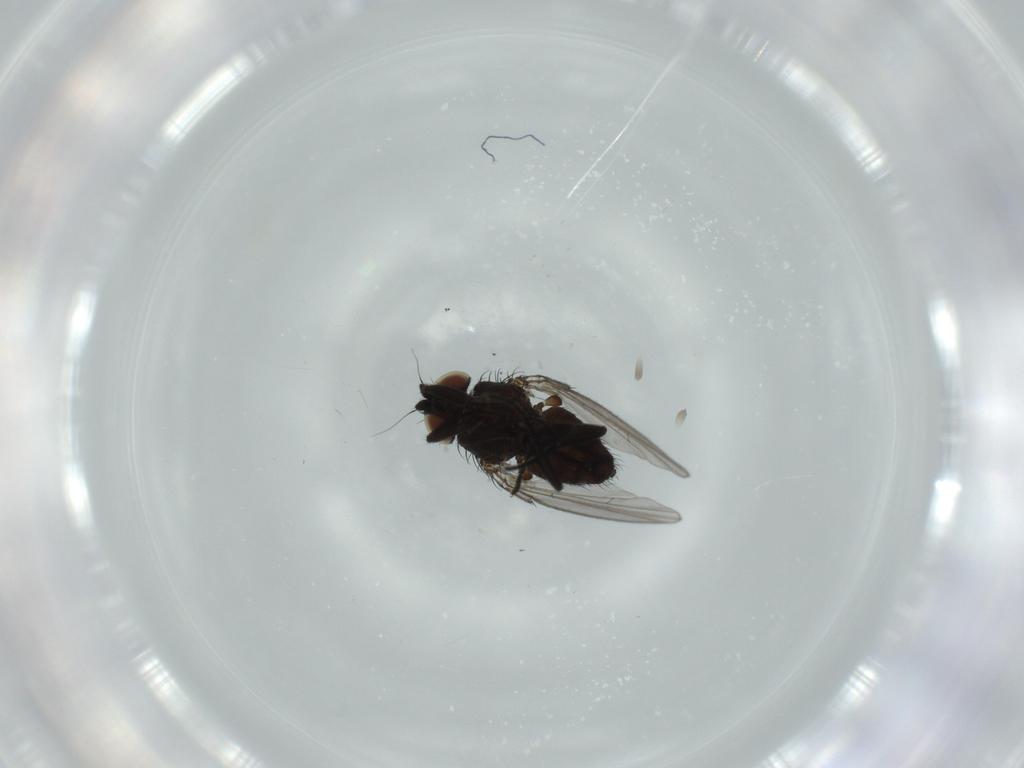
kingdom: Animalia
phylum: Arthropoda
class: Insecta
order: Diptera
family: Milichiidae
